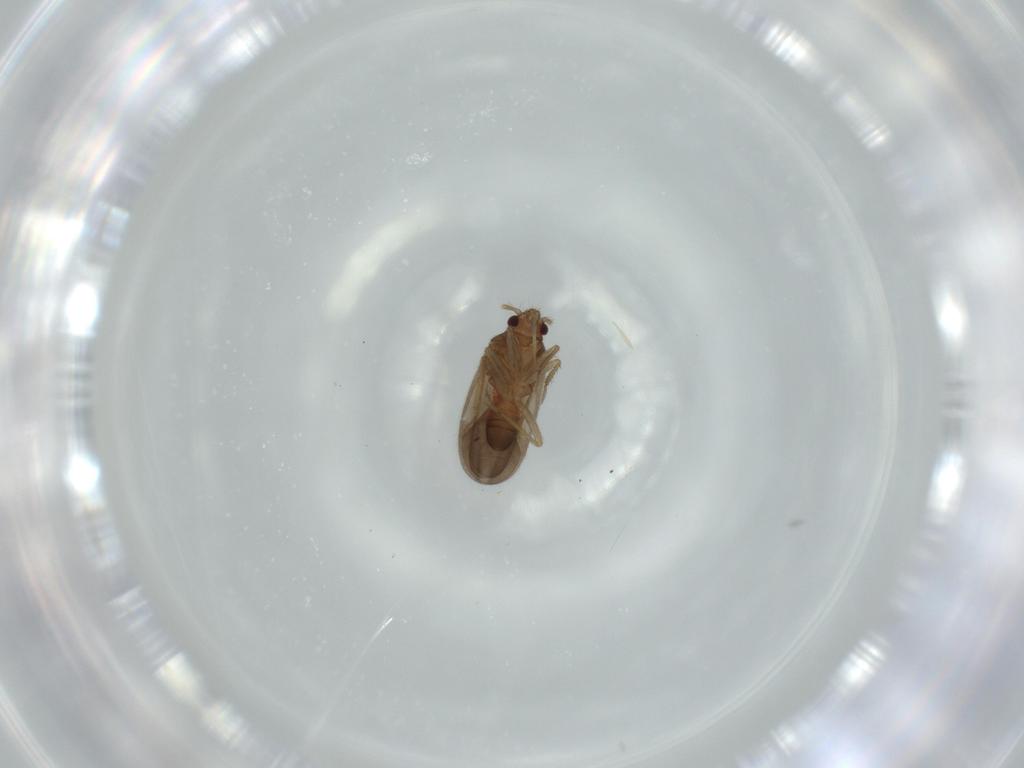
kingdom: Animalia
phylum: Arthropoda
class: Insecta
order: Hemiptera
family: Ceratocombidae
